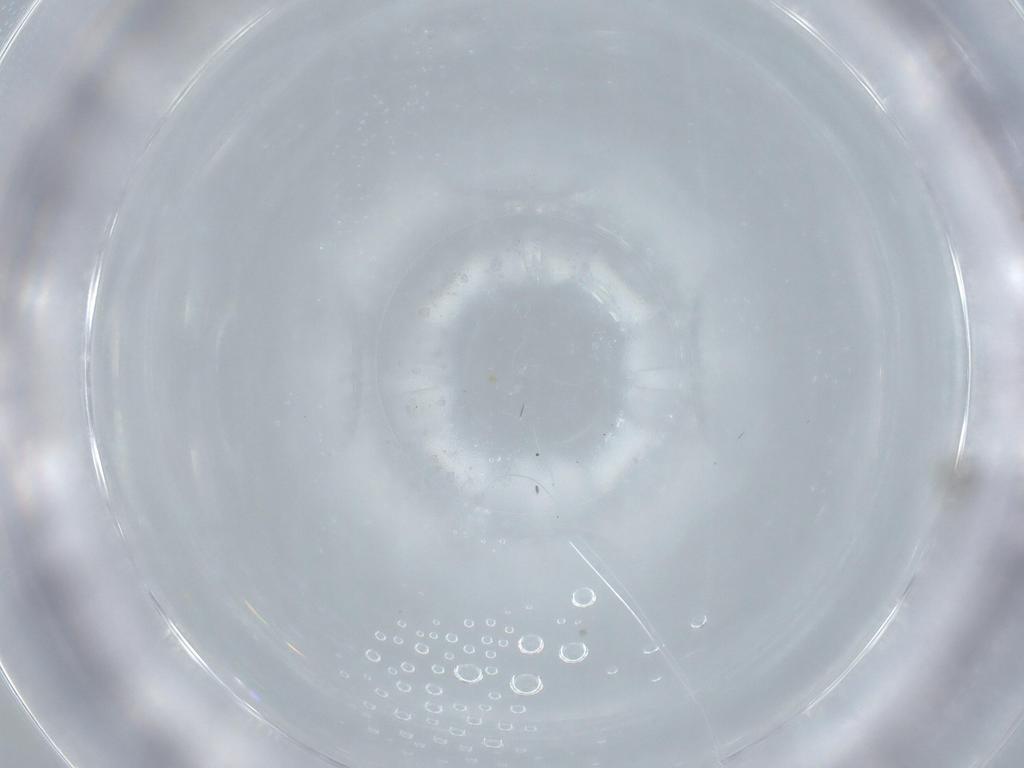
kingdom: Animalia
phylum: Arthropoda
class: Insecta
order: Diptera
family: Cecidomyiidae
